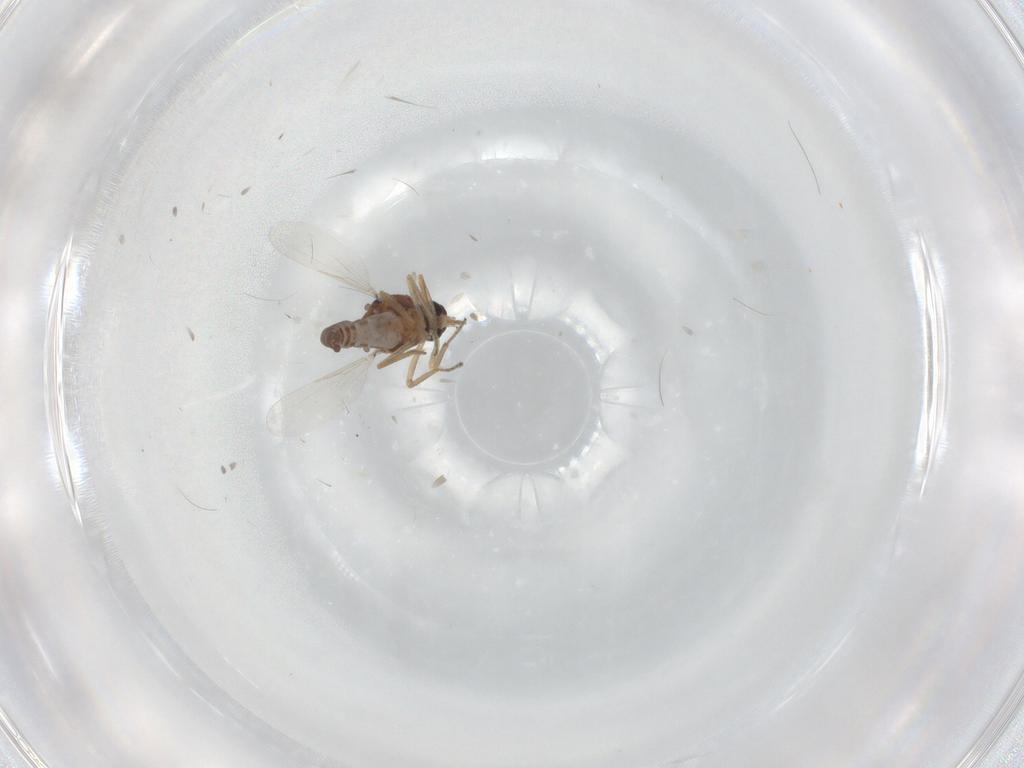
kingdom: Animalia
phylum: Arthropoda
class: Insecta
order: Diptera
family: Ceratopogonidae
